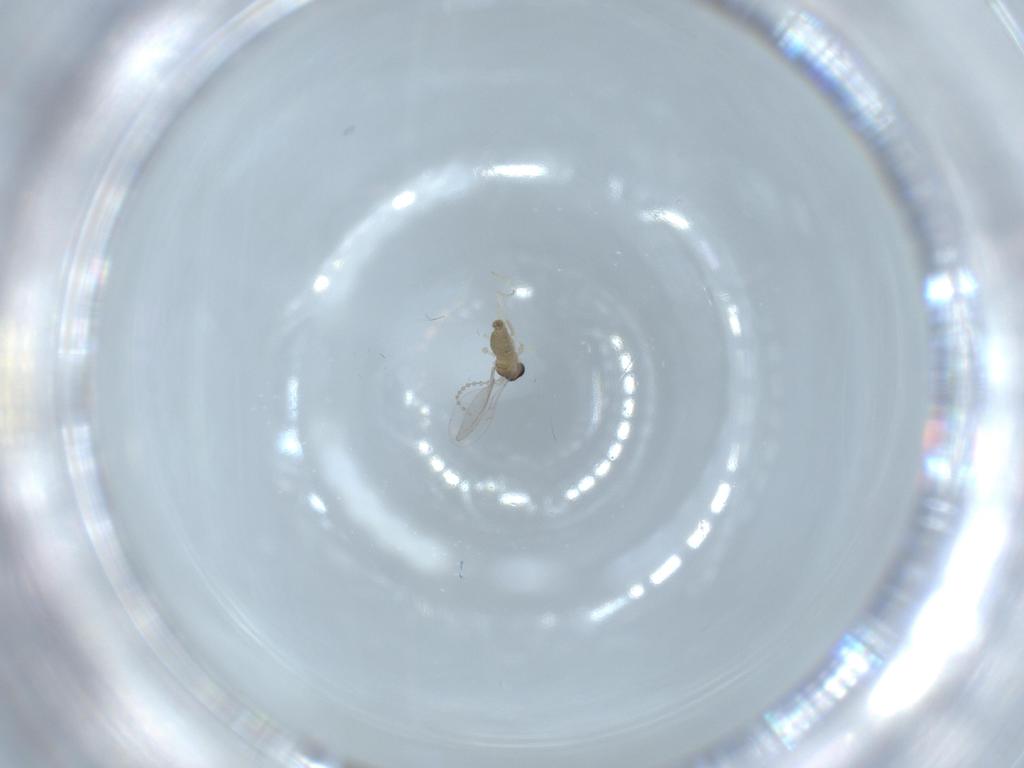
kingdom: Animalia
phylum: Arthropoda
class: Insecta
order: Diptera
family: Cecidomyiidae
